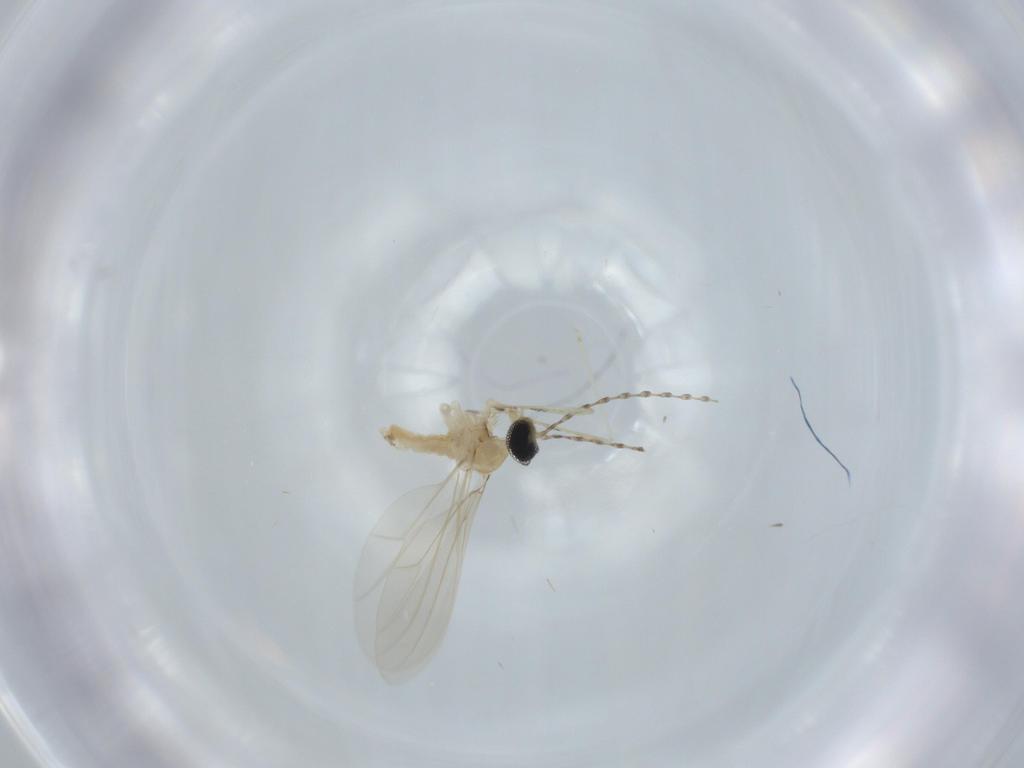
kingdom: Animalia
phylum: Arthropoda
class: Insecta
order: Diptera
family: Cecidomyiidae
